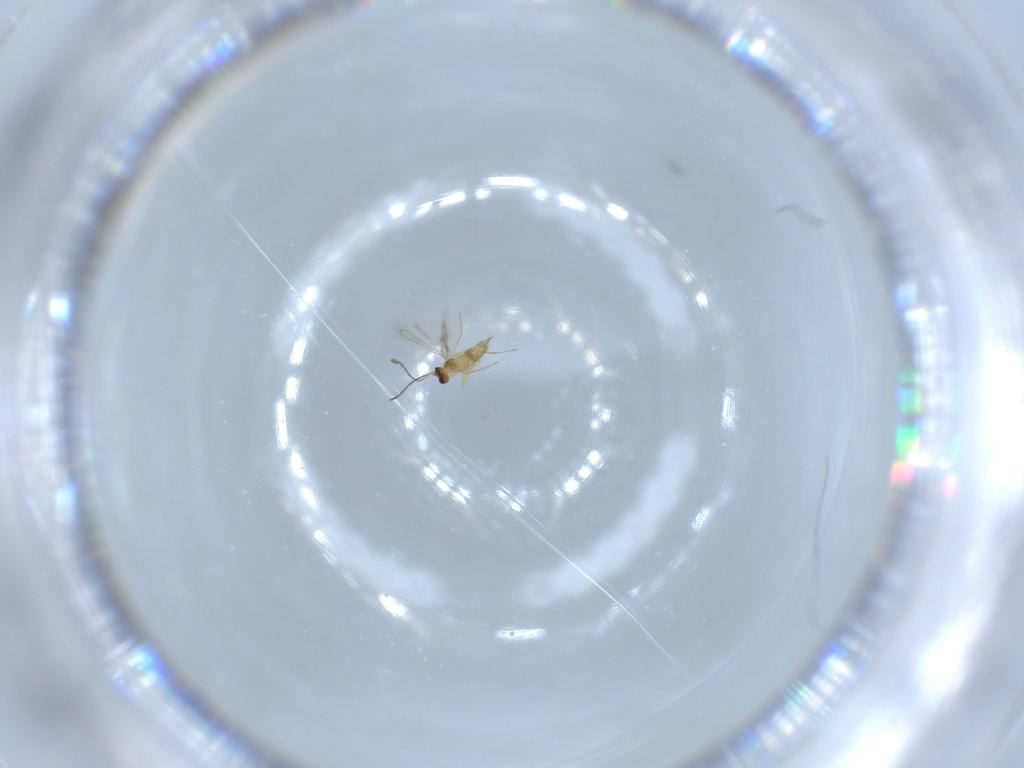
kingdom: Animalia
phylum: Arthropoda
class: Insecta
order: Hymenoptera
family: Mymaridae
